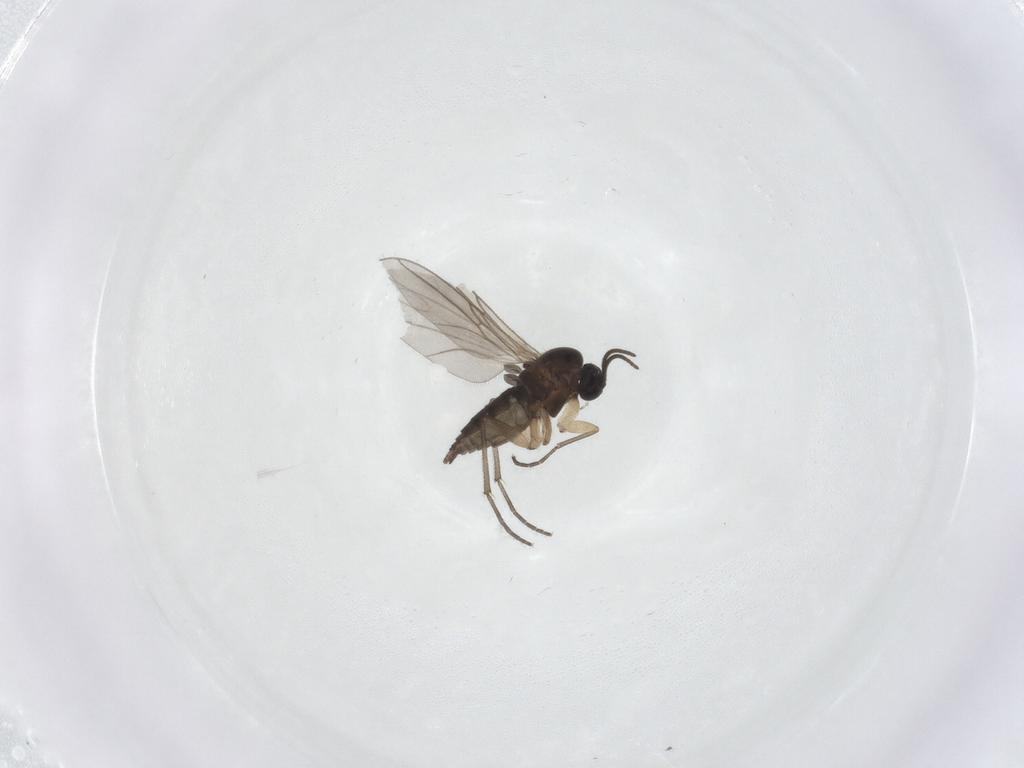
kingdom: Animalia
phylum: Arthropoda
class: Insecta
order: Diptera
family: Sciaridae
